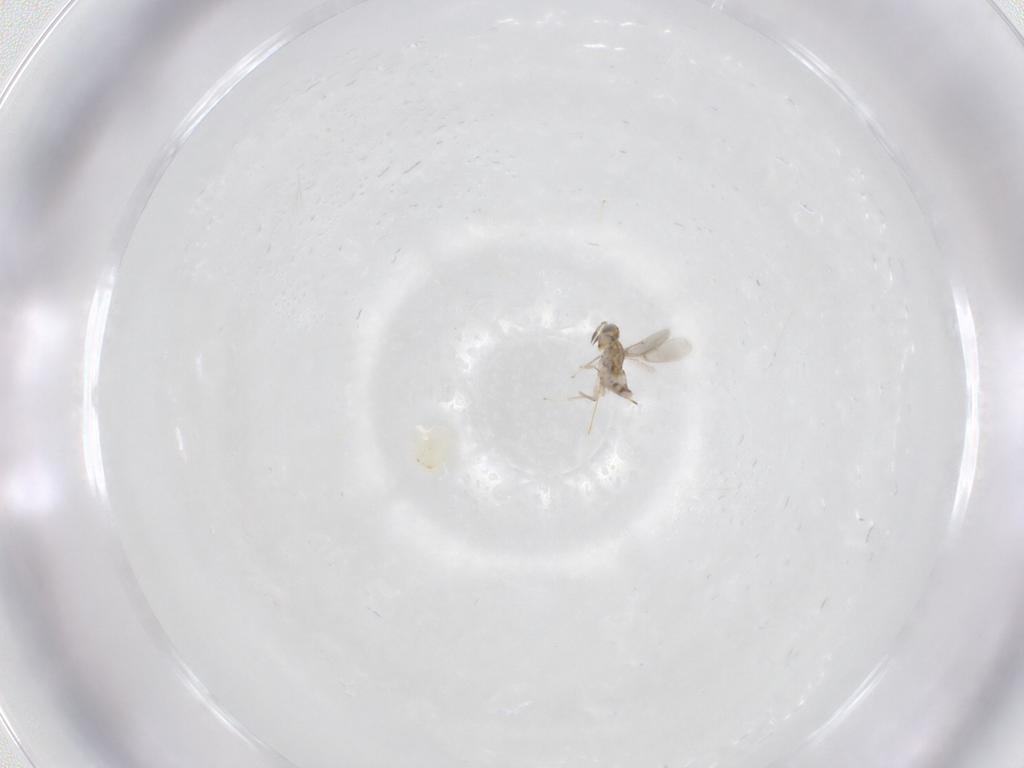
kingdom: Animalia
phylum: Arthropoda
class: Insecta
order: Hymenoptera
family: Aphelinidae
